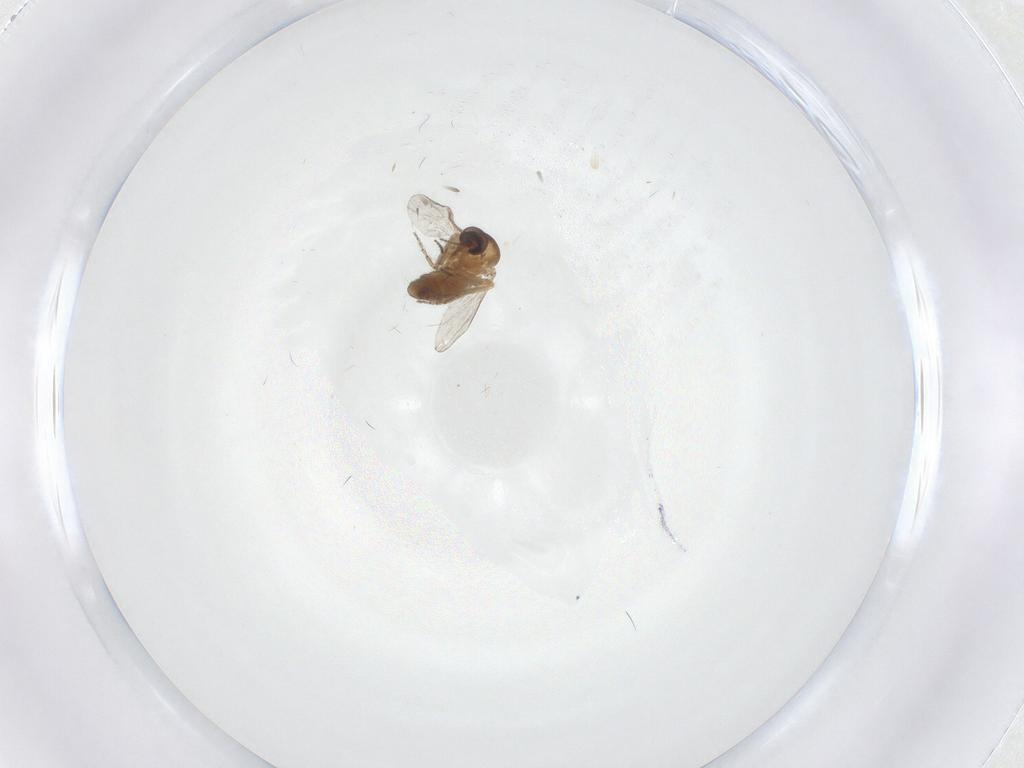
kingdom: Animalia
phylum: Arthropoda
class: Insecta
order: Diptera
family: Ceratopogonidae
